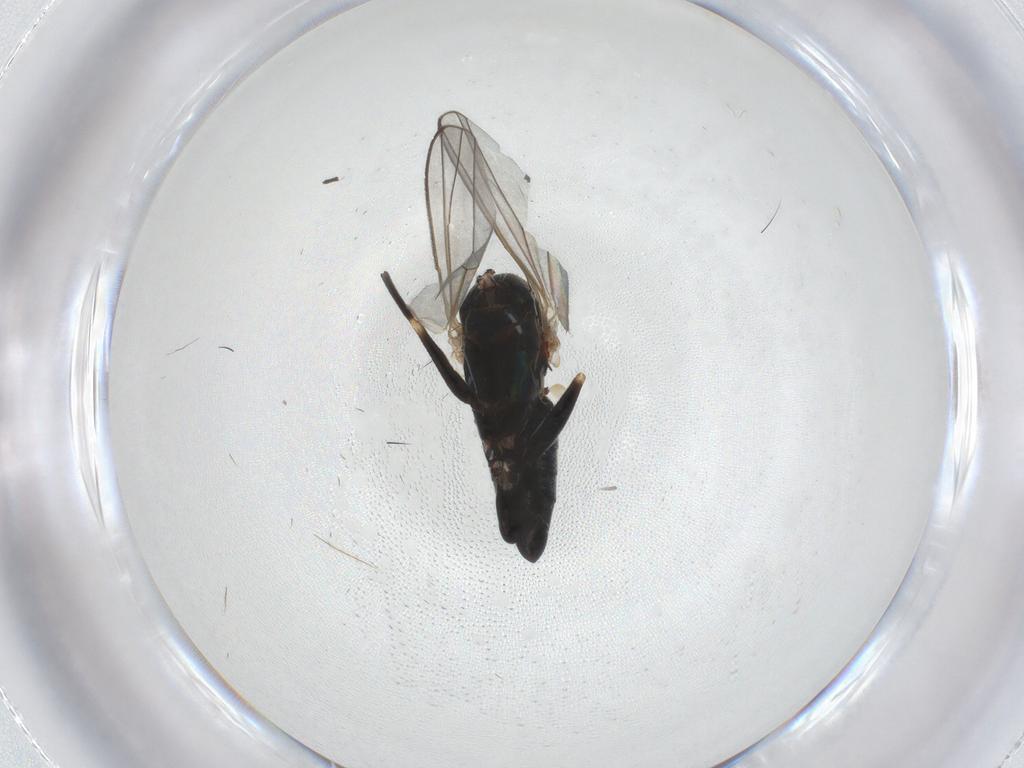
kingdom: Animalia
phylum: Arthropoda
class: Insecta
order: Diptera
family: Dolichopodidae
